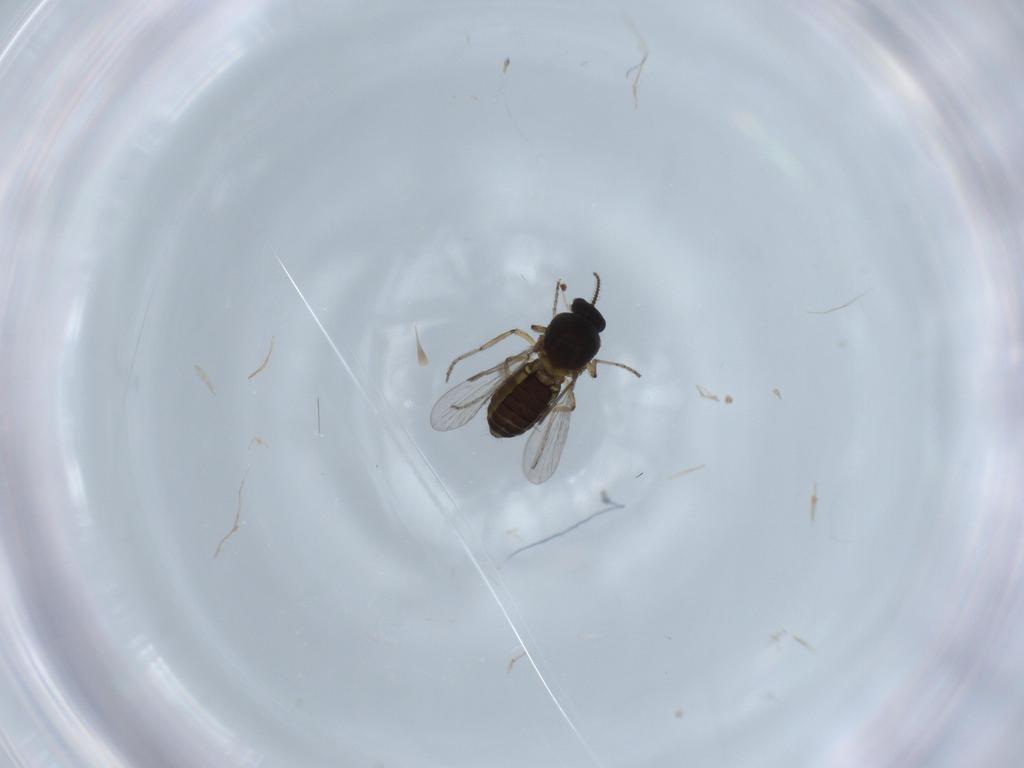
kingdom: Animalia
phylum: Arthropoda
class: Insecta
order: Diptera
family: Ceratopogonidae
